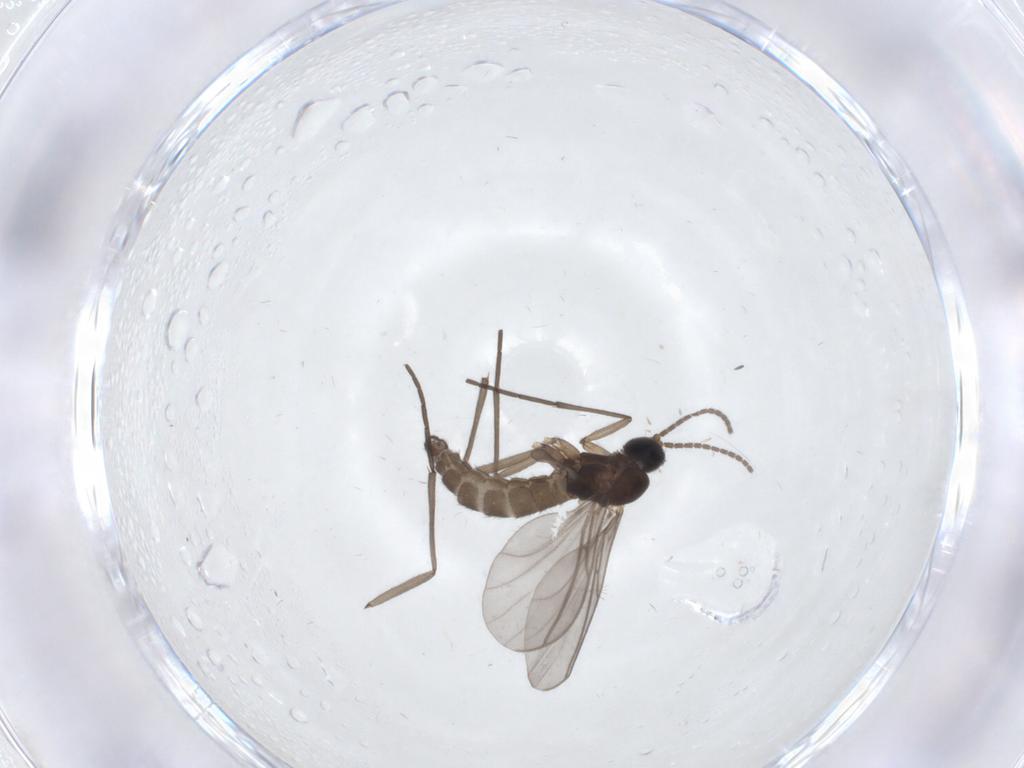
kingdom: Animalia
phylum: Arthropoda
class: Insecta
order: Diptera
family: Sciaridae
